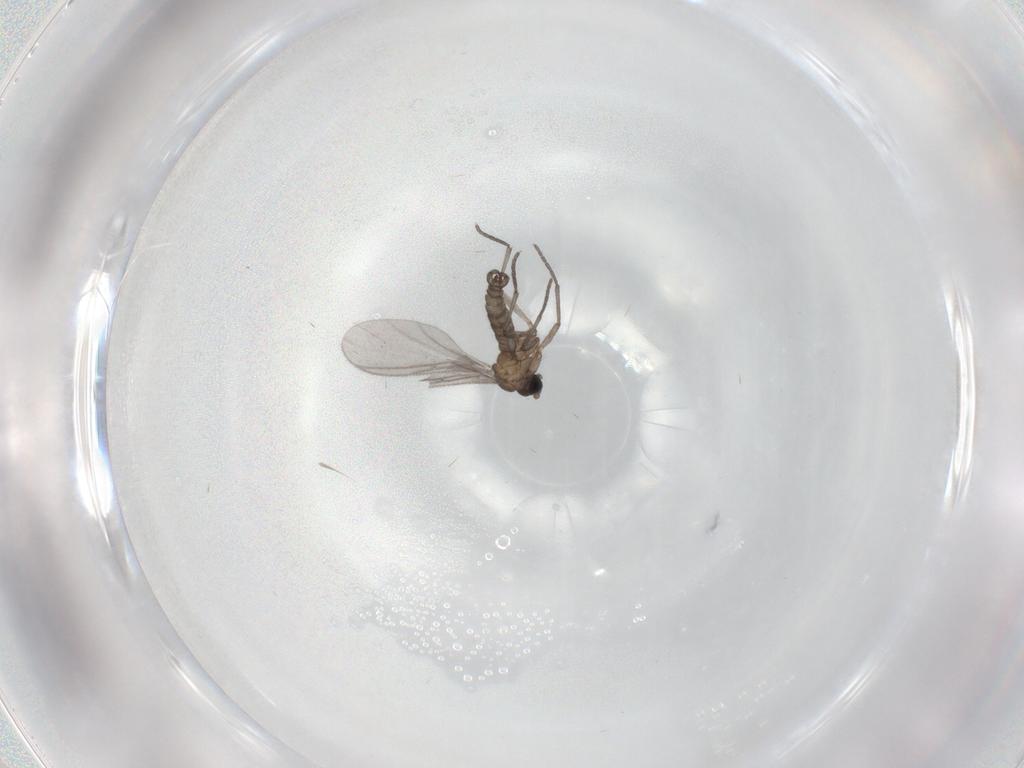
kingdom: Animalia
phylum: Arthropoda
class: Insecta
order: Diptera
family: Sciaridae
